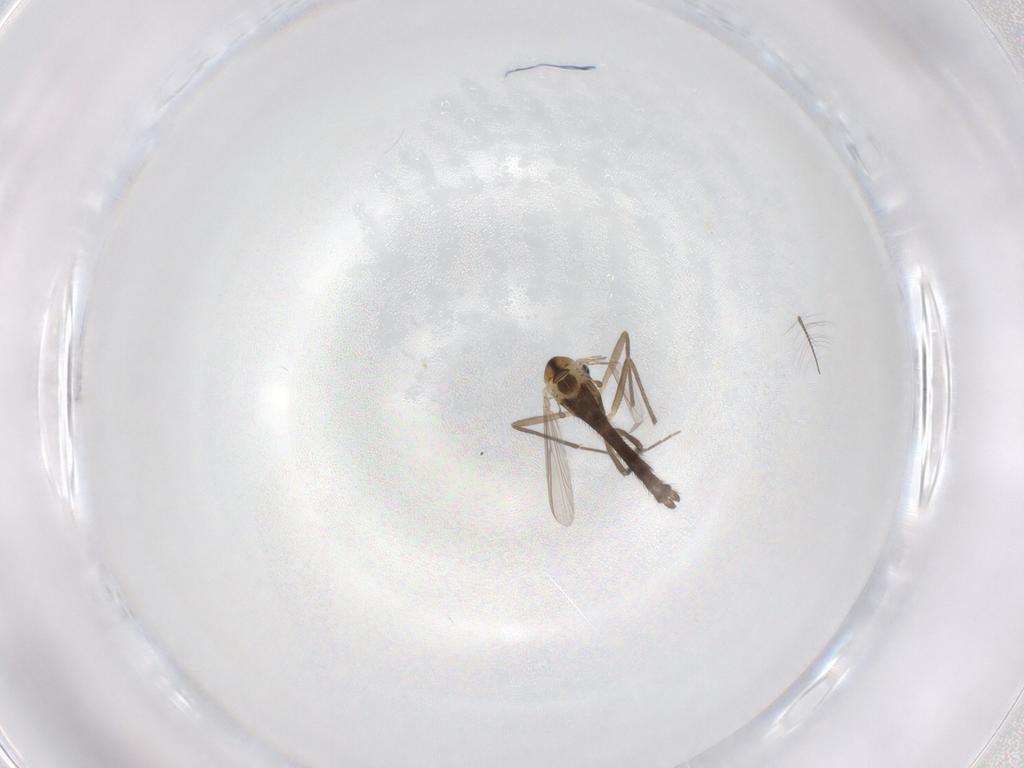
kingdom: Animalia
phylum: Arthropoda
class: Insecta
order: Diptera
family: Chironomidae
